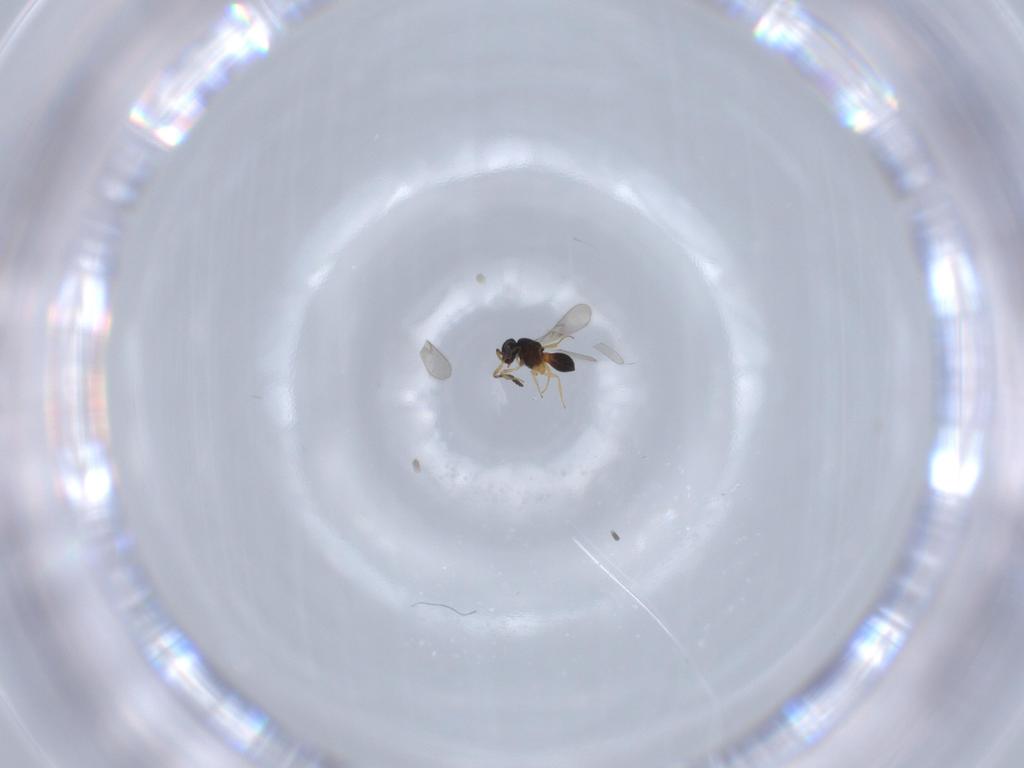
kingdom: Animalia
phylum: Arthropoda
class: Insecta
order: Hymenoptera
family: Scelionidae
